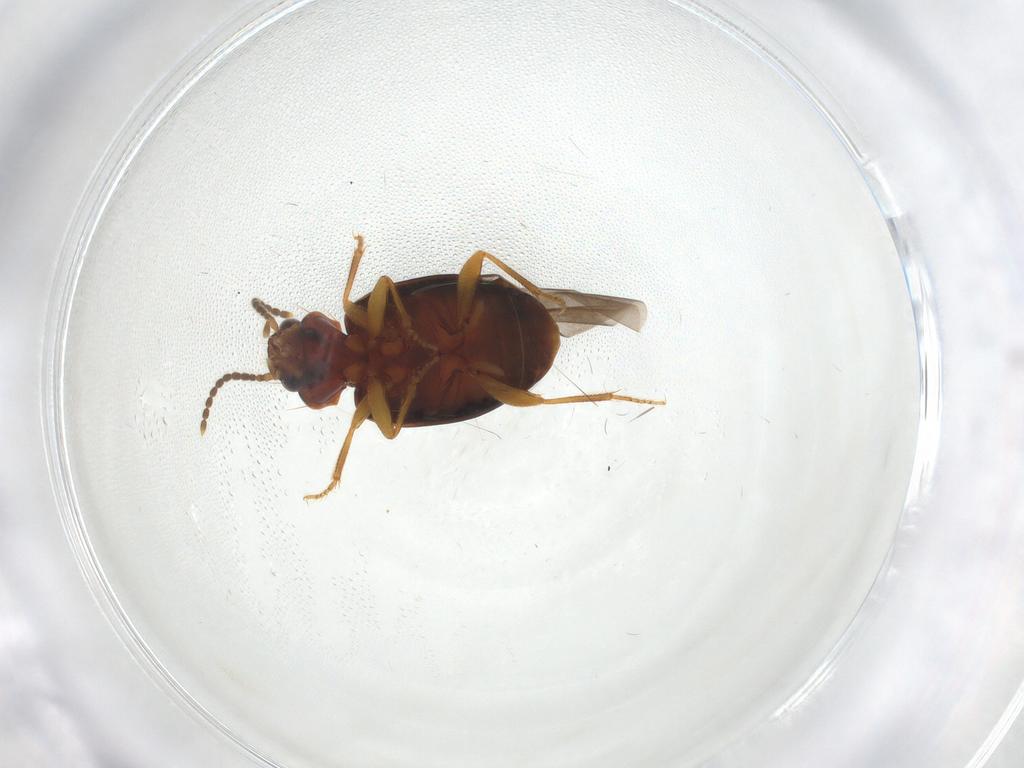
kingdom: Animalia
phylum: Arthropoda
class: Insecta
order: Coleoptera
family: Carabidae
